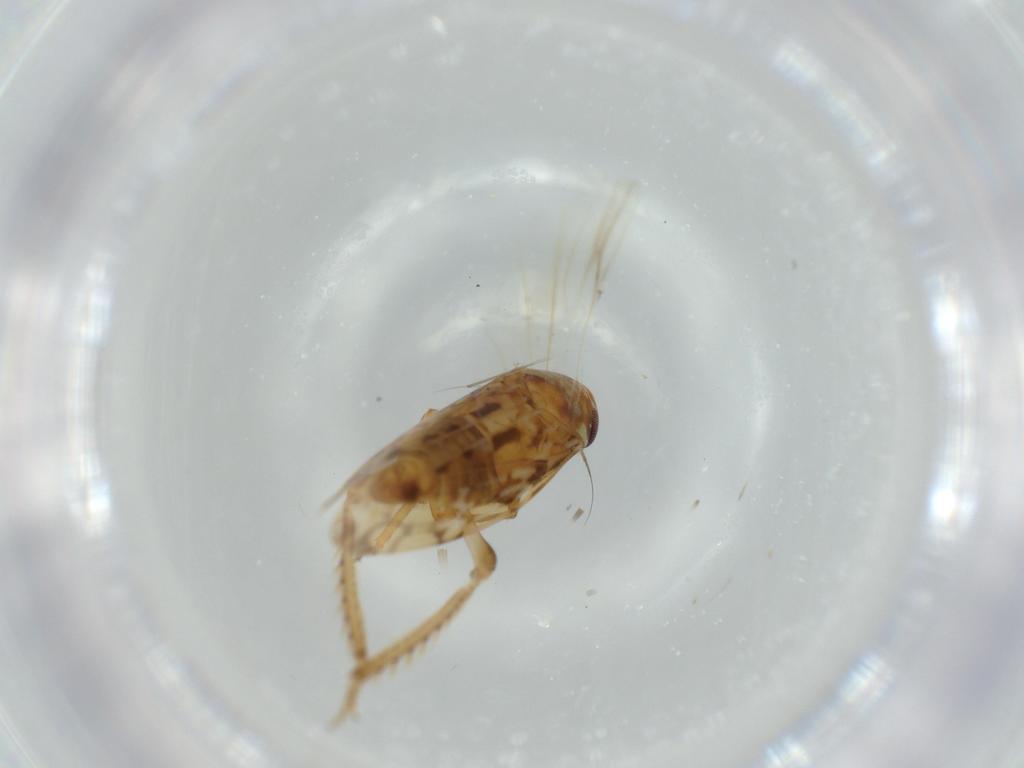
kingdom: Animalia
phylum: Arthropoda
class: Insecta
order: Hemiptera
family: Cicadellidae
